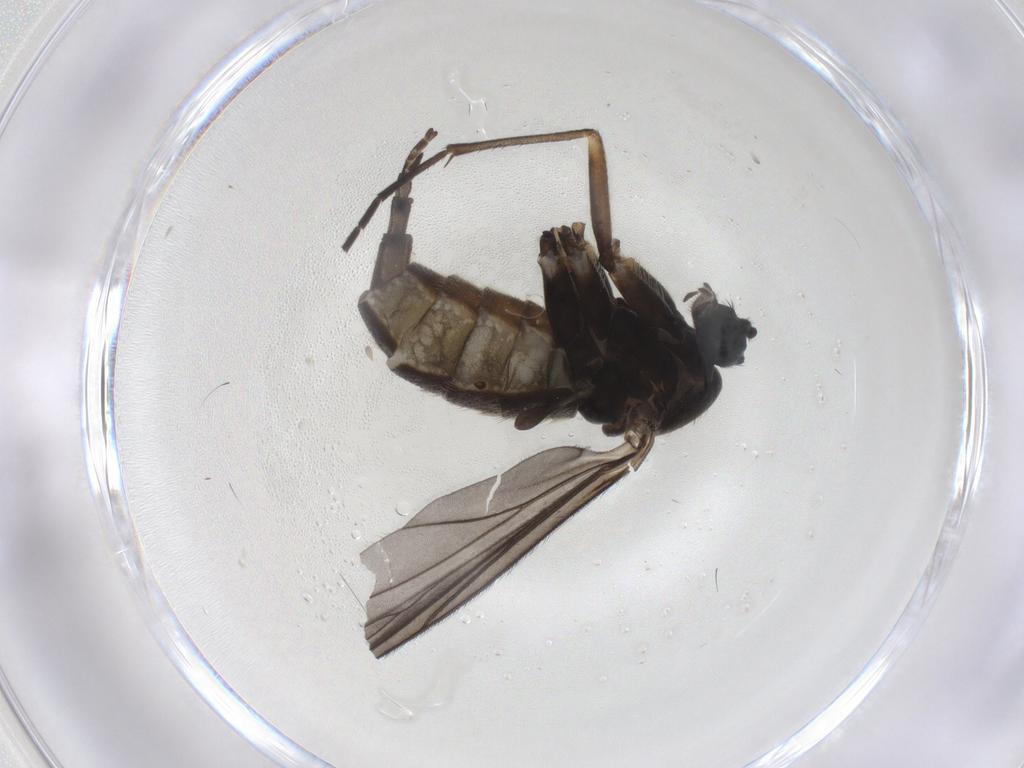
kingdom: Animalia
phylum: Arthropoda
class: Insecta
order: Diptera
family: Sciaridae
